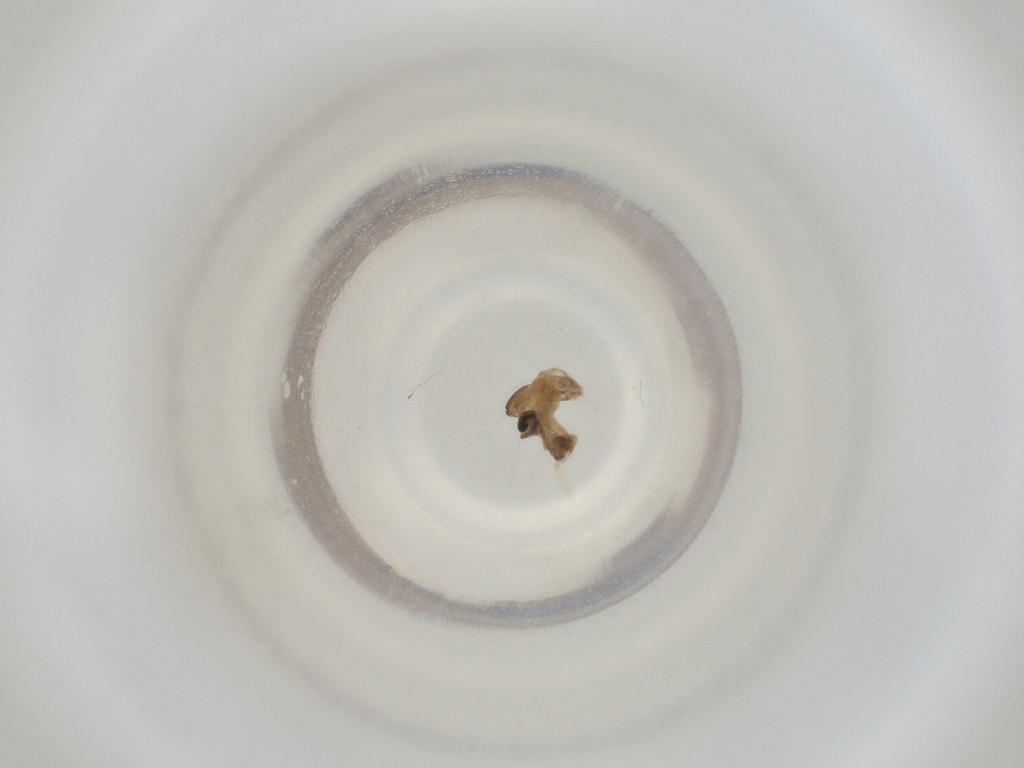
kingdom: Animalia
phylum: Arthropoda
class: Insecta
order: Diptera
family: Cecidomyiidae
